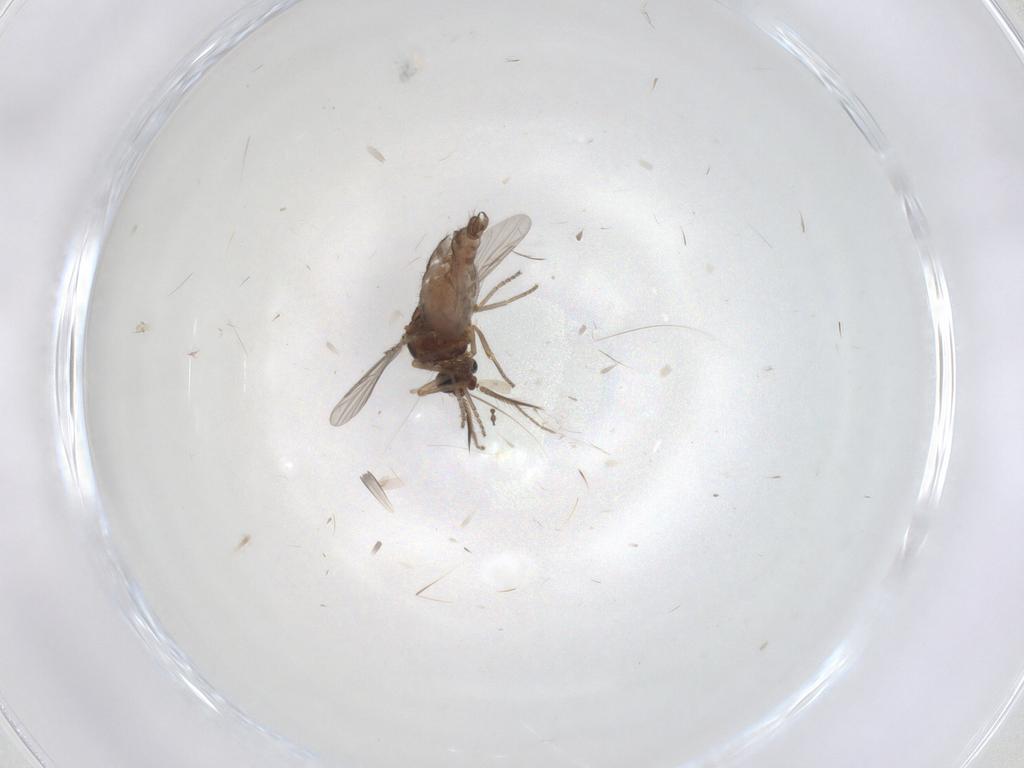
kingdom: Animalia
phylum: Arthropoda
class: Insecta
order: Diptera
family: Ceratopogonidae
